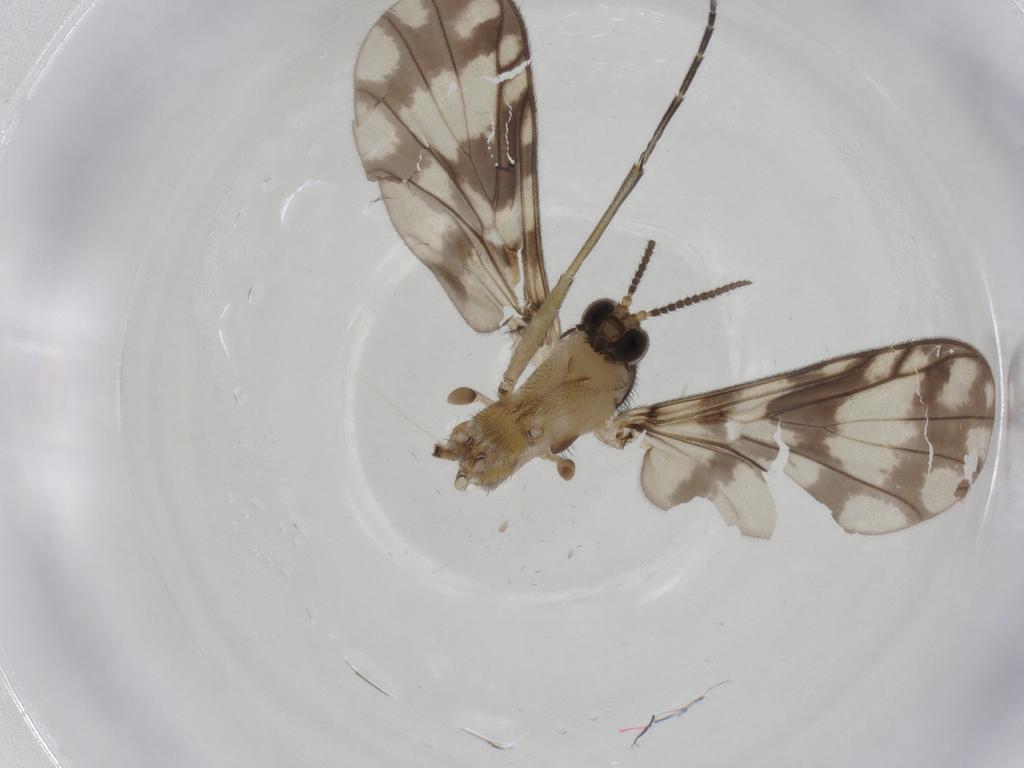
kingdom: Animalia
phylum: Arthropoda
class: Insecta
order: Diptera
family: Keroplatidae
